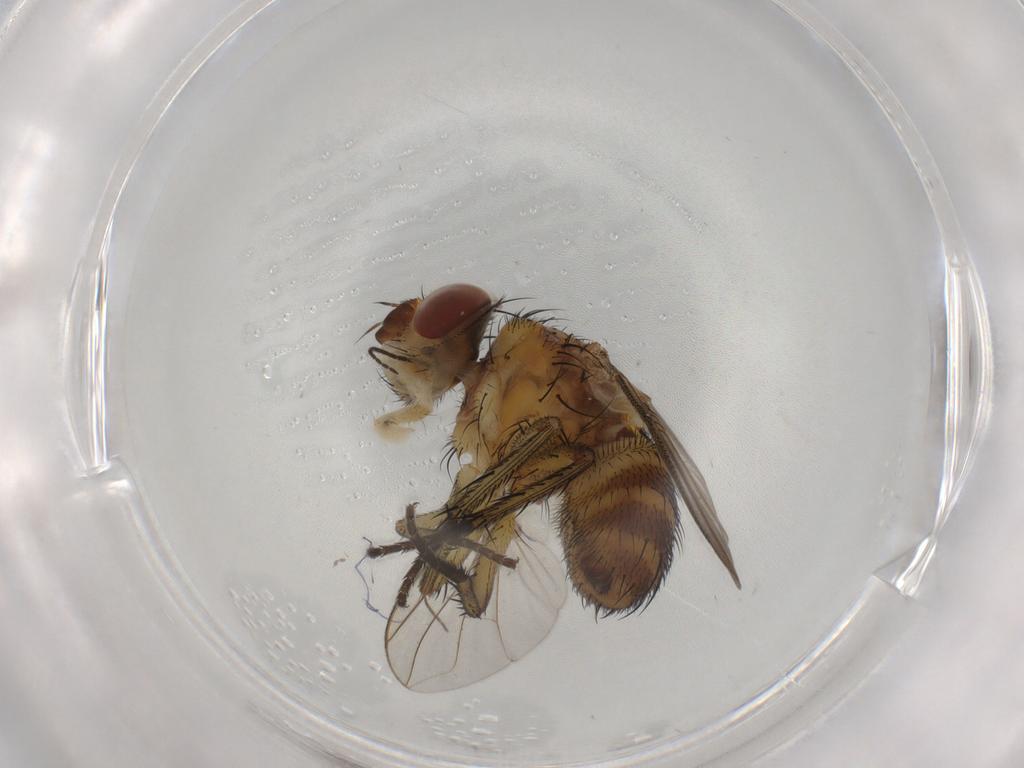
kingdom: Animalia
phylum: Arthropoda
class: Insecta
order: Diptera
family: Tachinidae
